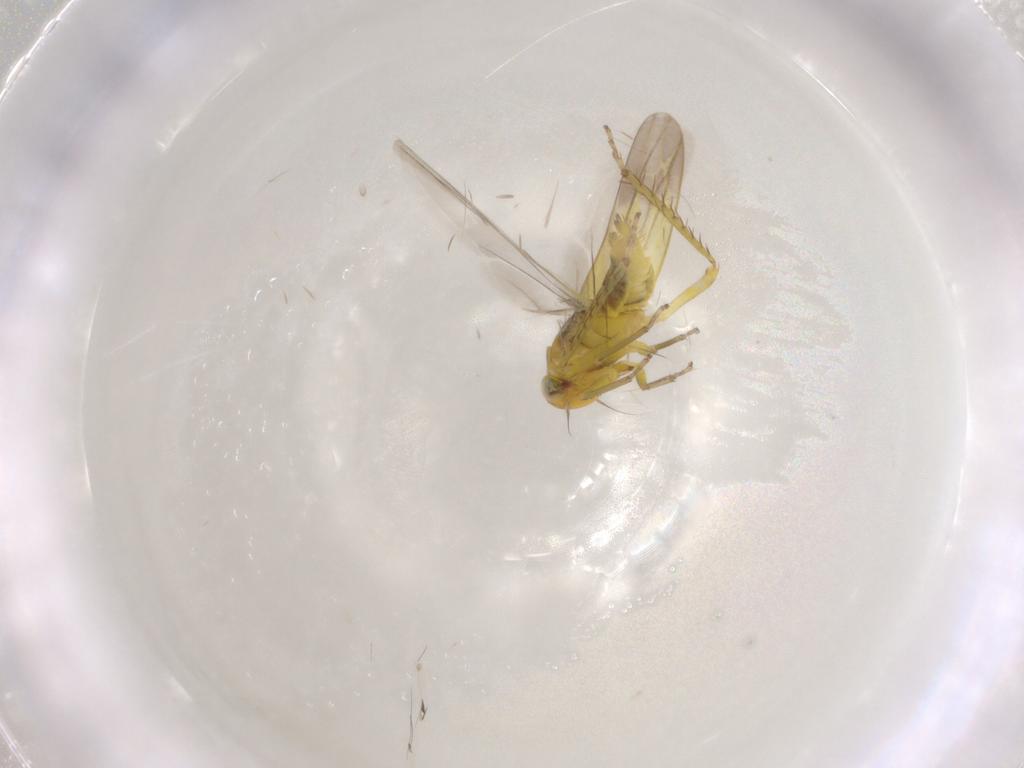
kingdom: Animalia
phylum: Arthropoda
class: Insecta
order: Hemiptera
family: Cicadellidae
